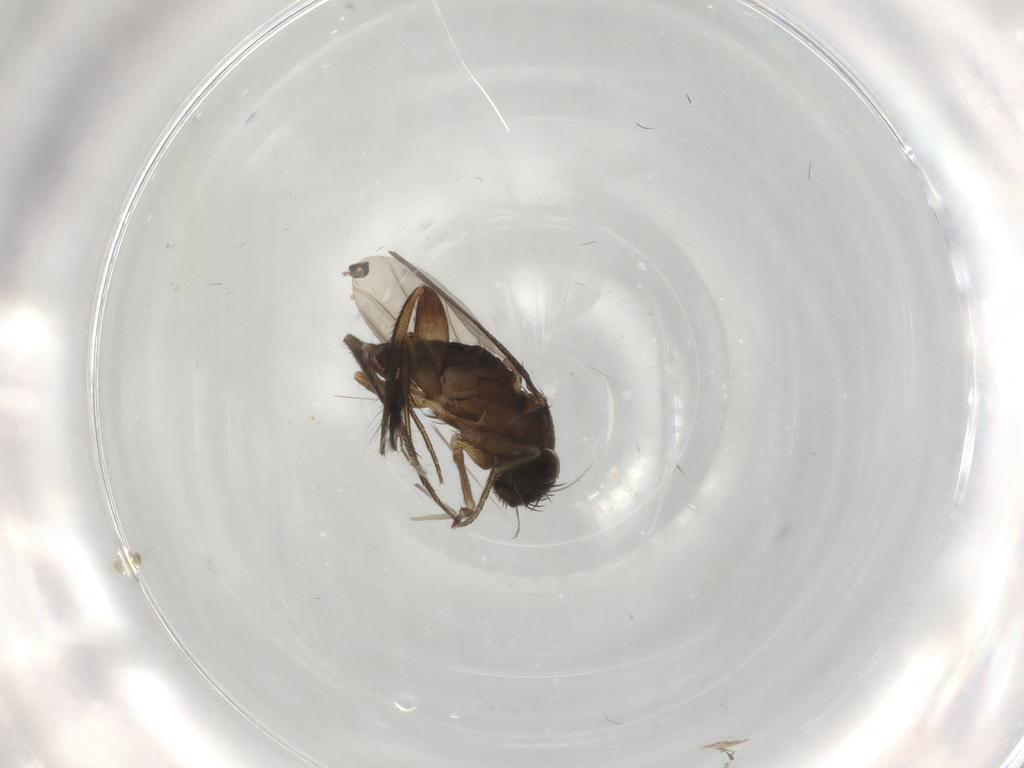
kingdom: Animalia
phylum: Arthropoda
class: Insecta
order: Diptera
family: Phoridae
